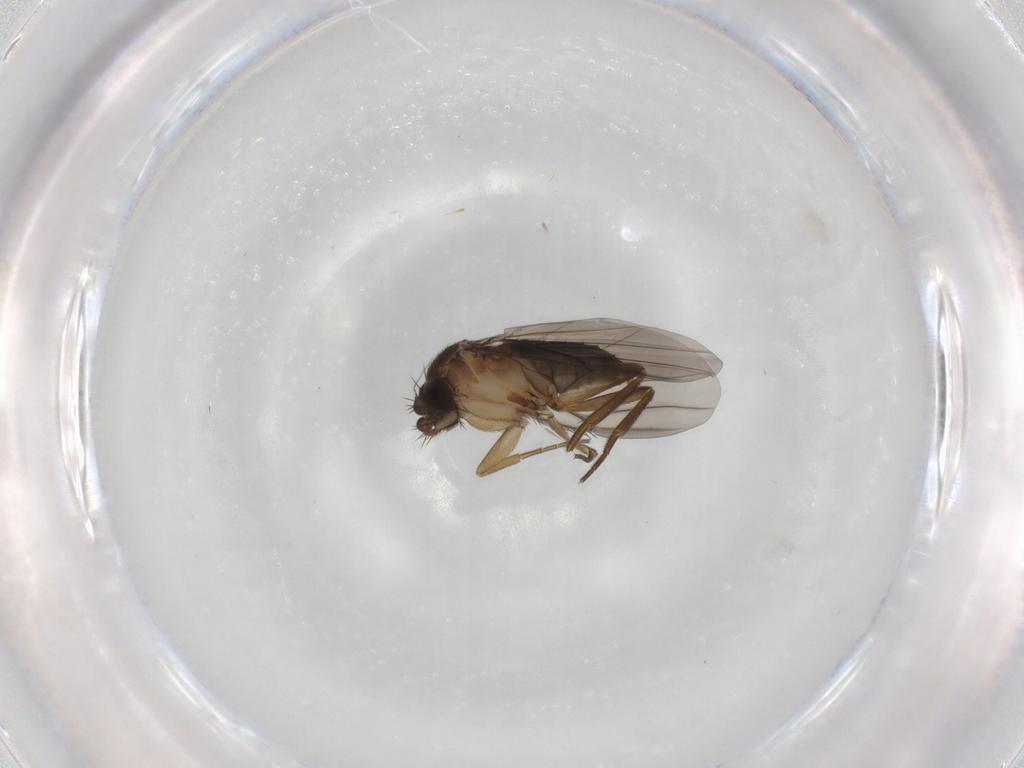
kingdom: Animalia
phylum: Arthropoda
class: Insecta
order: Diptera
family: Phoridae
